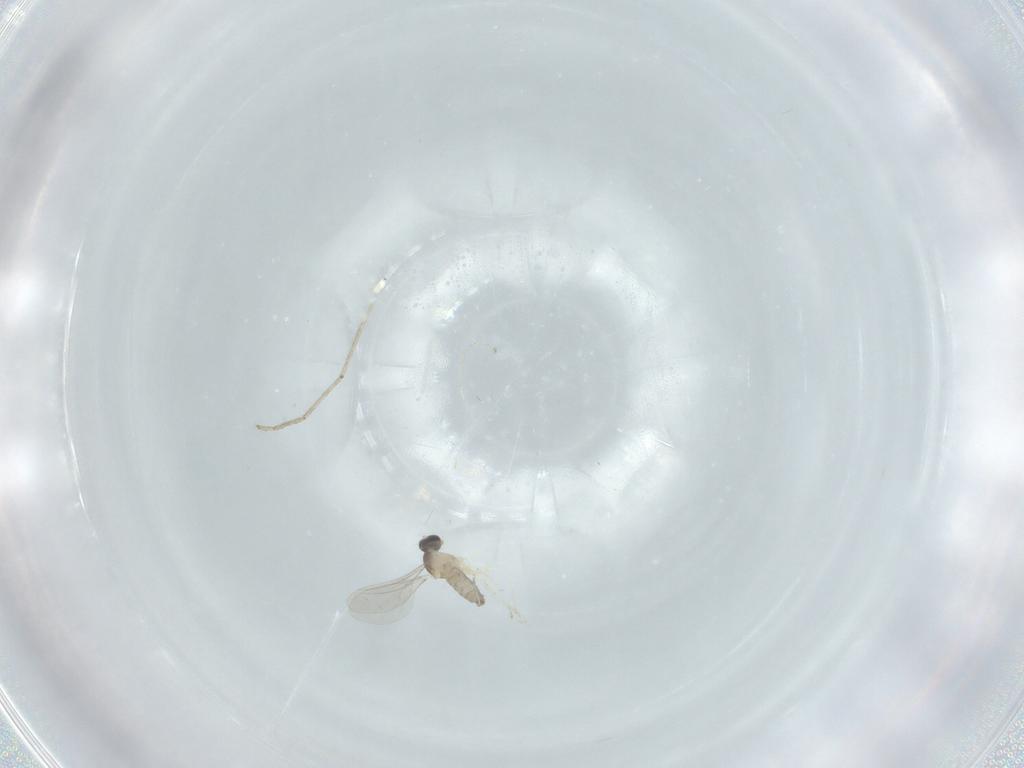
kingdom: Animalia
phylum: Arthropoda
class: Insecta
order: Diptera
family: Cecidomyiidae
